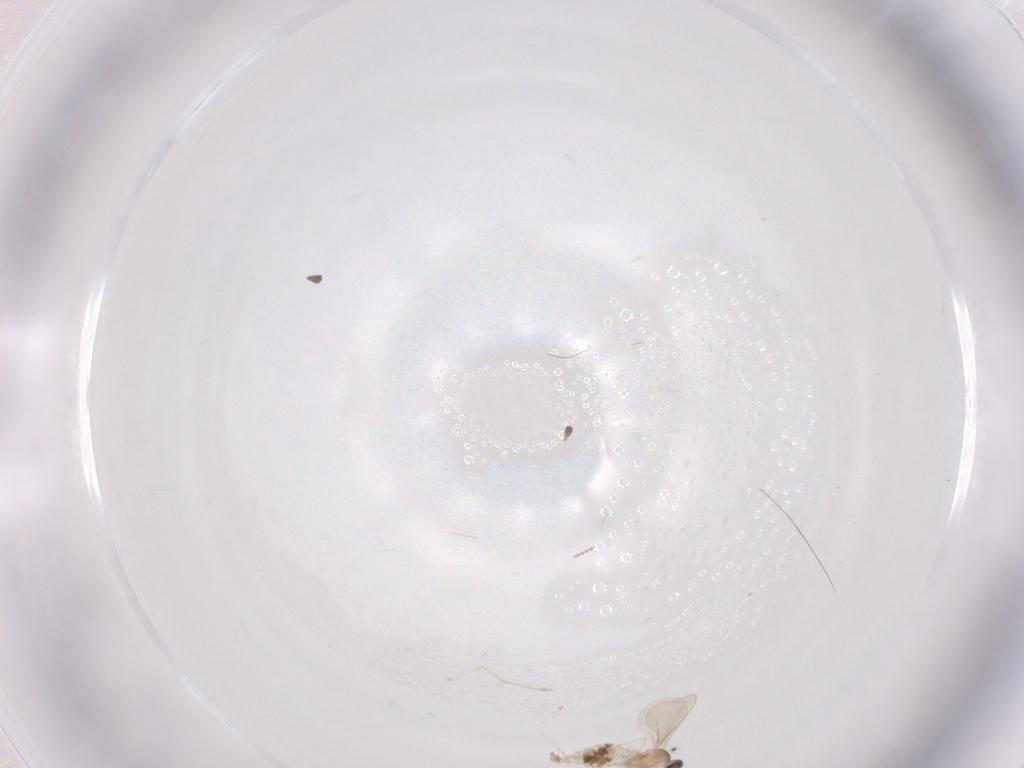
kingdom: Animalia
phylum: Arthropoda
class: Insecta
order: Diptera
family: Cecidomyiidae
